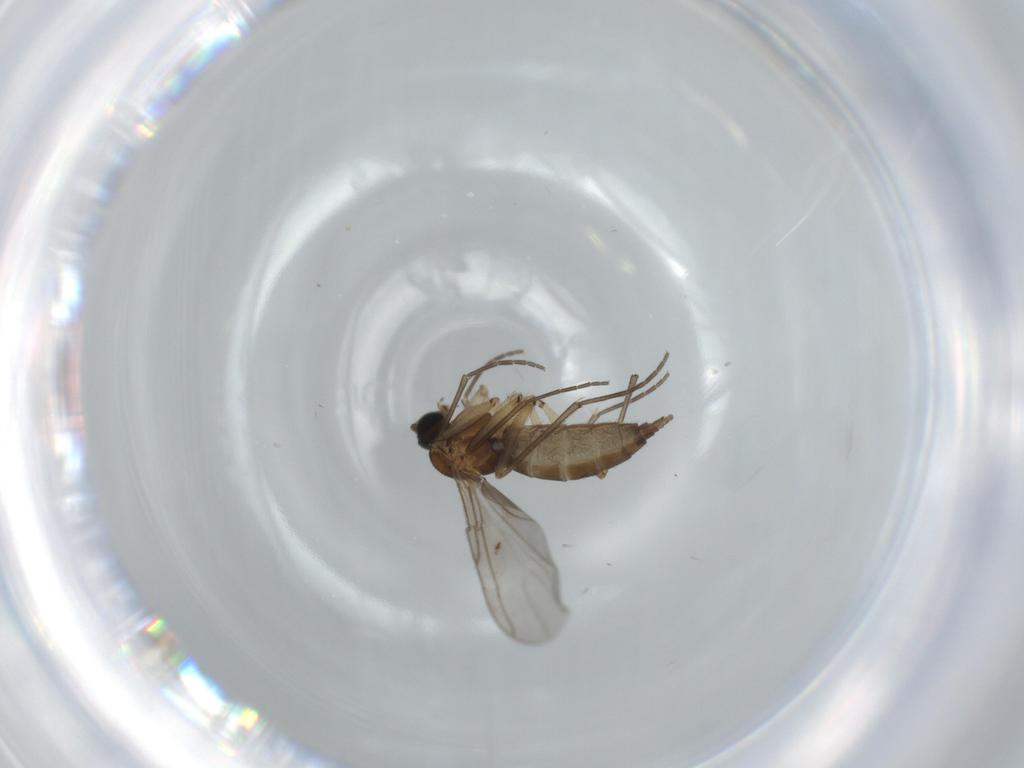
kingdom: Animalia
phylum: Arthropoda
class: Insecta
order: Diptera
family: Sciaridae
